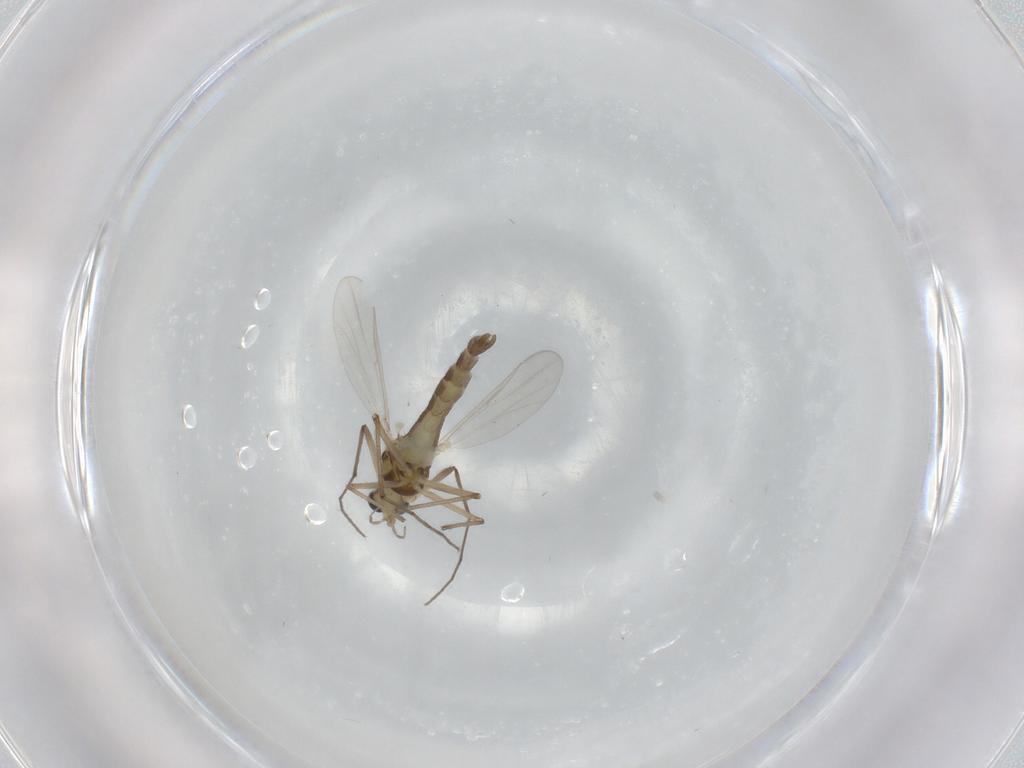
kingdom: Animalia
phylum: Arthropoda
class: Insecta
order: Diptera
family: Chironomidae
